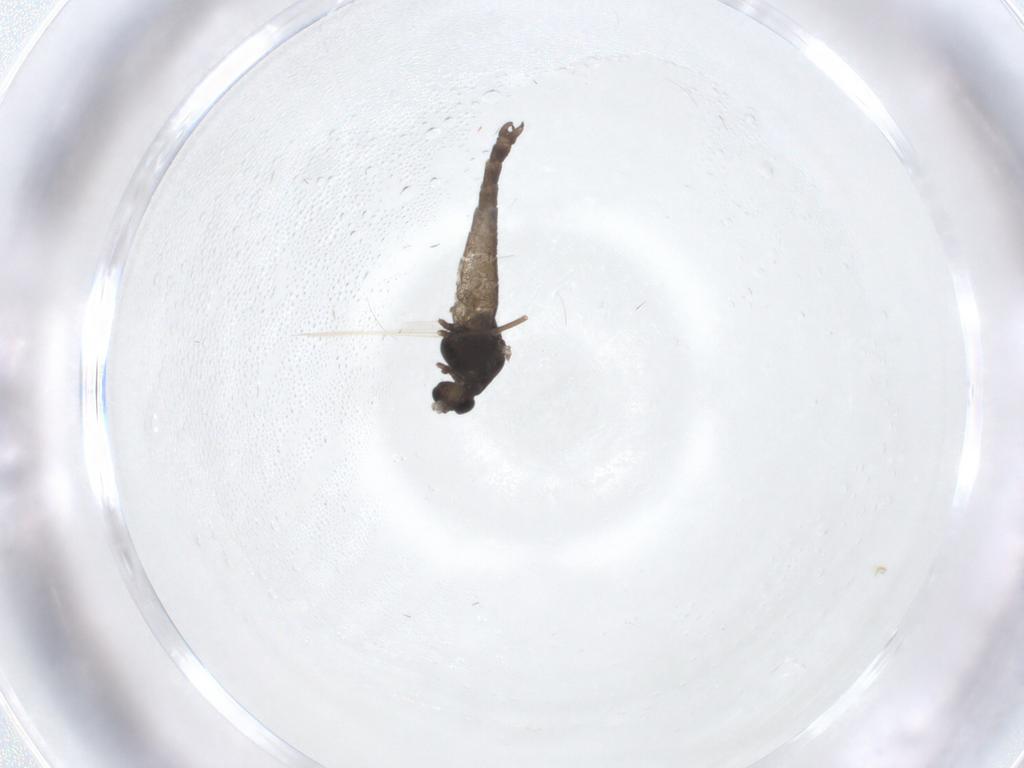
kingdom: Animalia
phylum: Arthropoda
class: Insecta
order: Diptera
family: Chironomidae
